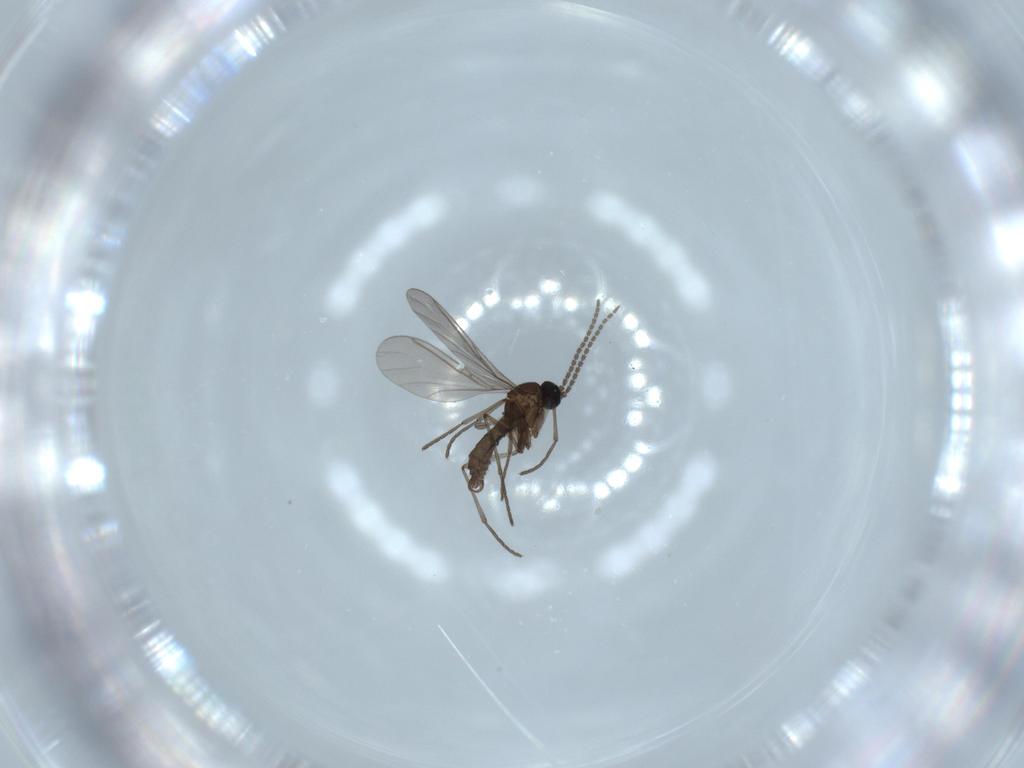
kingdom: Animalia
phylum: Arthropoda
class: Insecta
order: Diptera
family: Sciaridae
